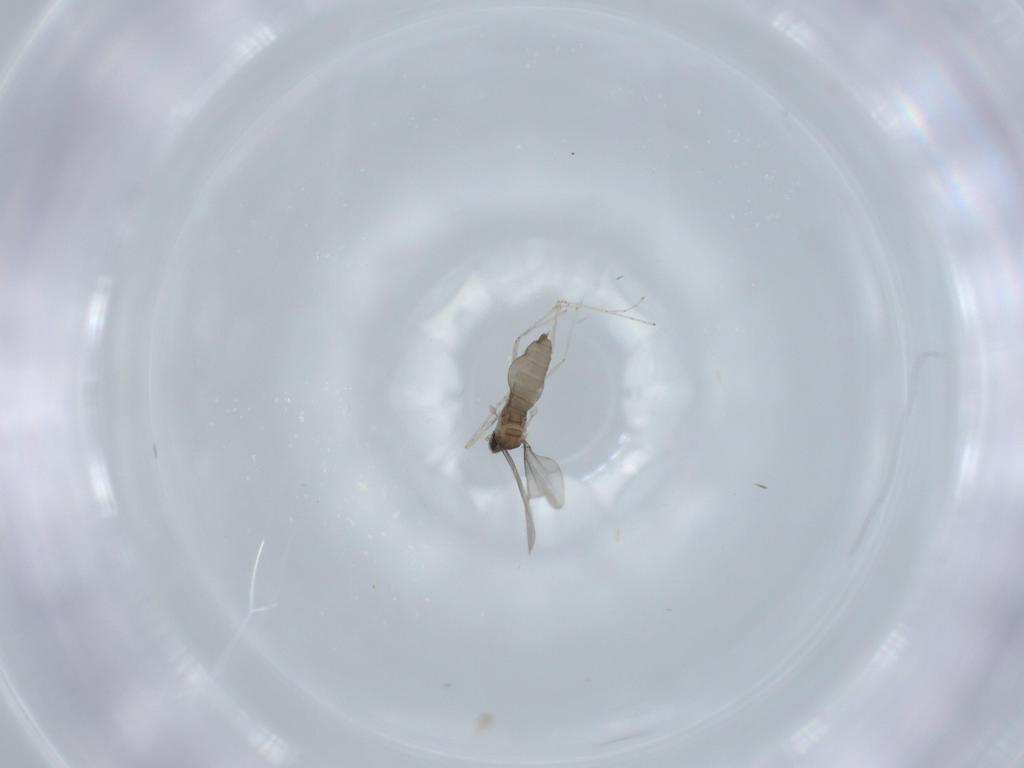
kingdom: Animalia
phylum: Arthropoda
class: Insecta
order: Diptera
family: Cecidomyiidae
